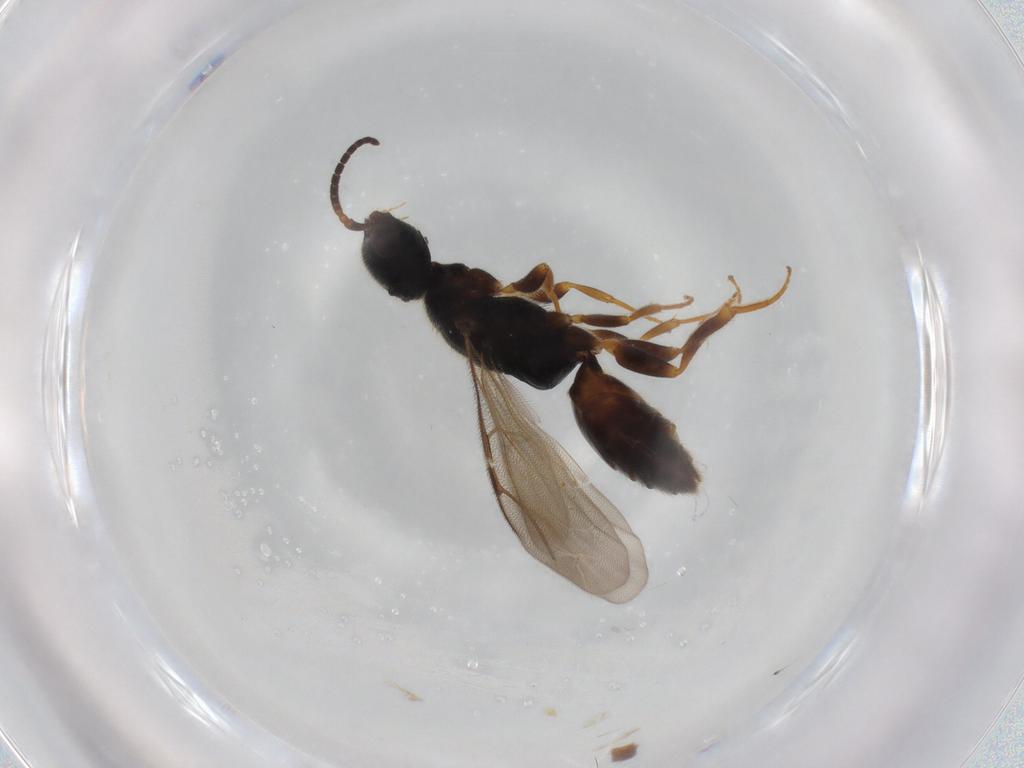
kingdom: Animalia
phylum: Arthropoda
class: Insecta
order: Hymenoptera
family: Bethylidae
